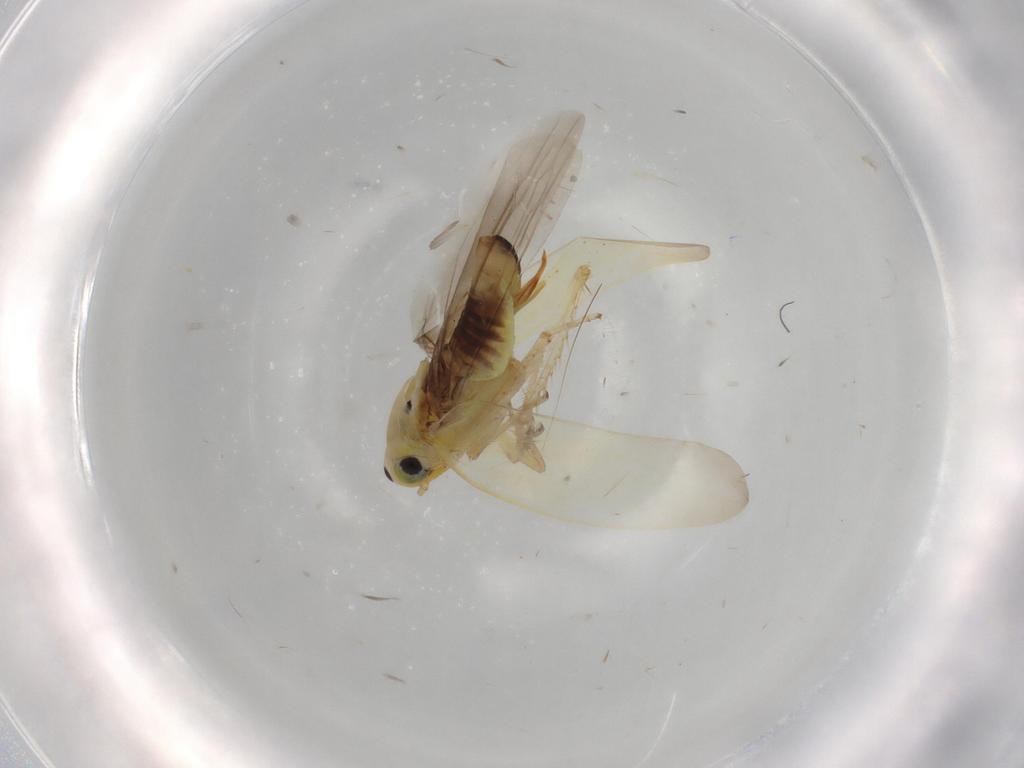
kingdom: Animalia
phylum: Arthropoda
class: Insecta
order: Hemiptera
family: Cicadellidae
